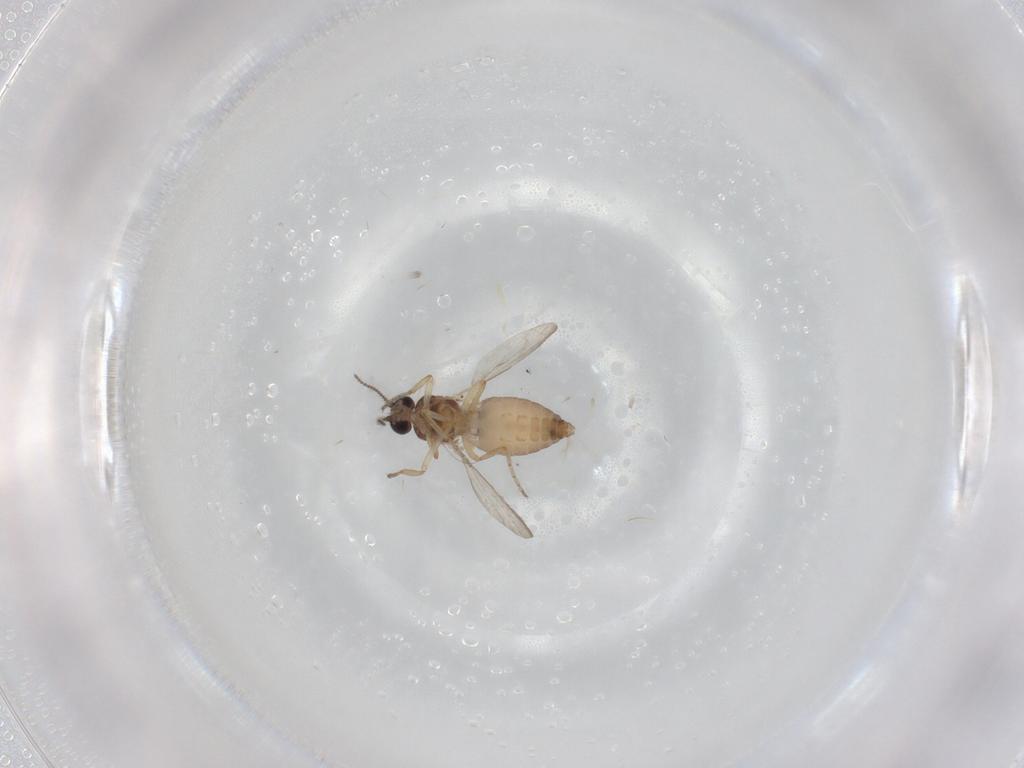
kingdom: Animalia
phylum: Arthropoda
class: Insecta
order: Diptera
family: Ceratopogonidae
